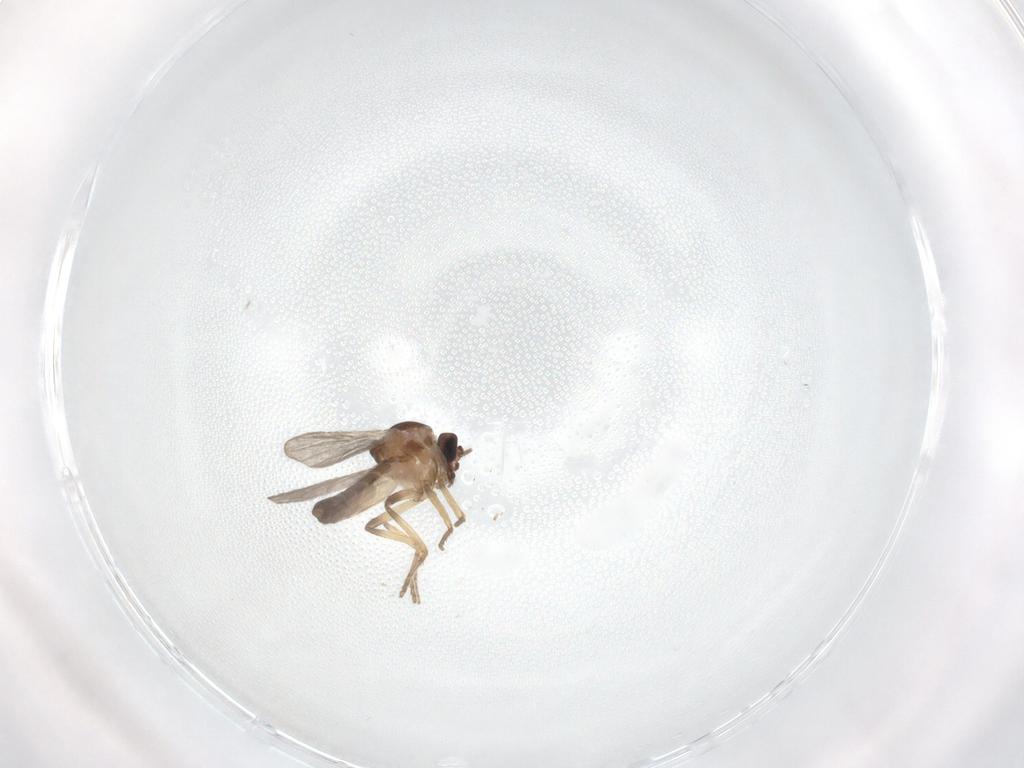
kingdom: Animalia
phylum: Arthropoda
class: Insecta
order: Diptera
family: Ceratopogonidae
